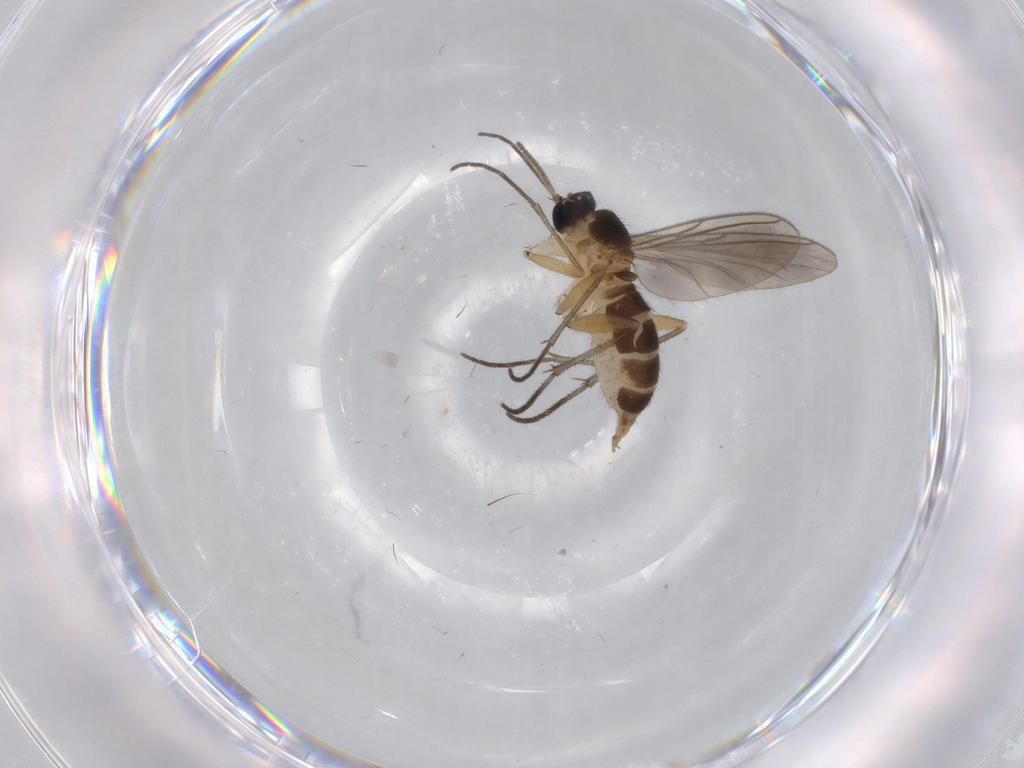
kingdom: Animalia
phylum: Arthropoda
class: Insecta
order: Diptera
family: Sciaridae
